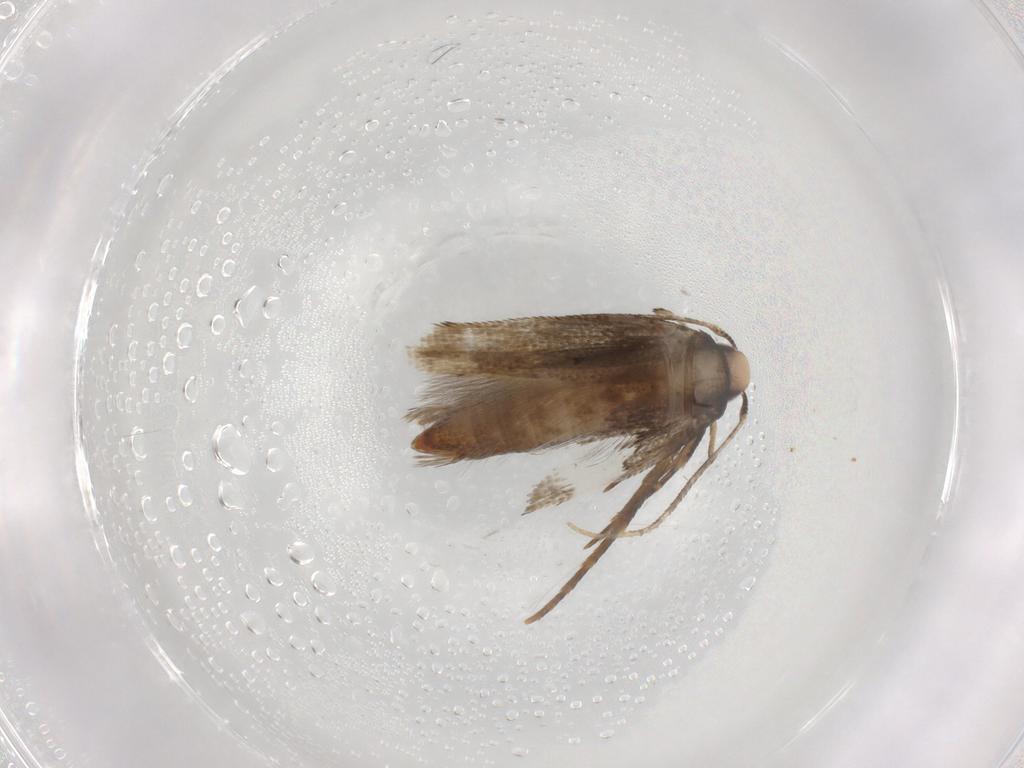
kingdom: Animalia
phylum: Arthropoda
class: Insecta
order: Lepidoptera
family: Cosmopterigidae
